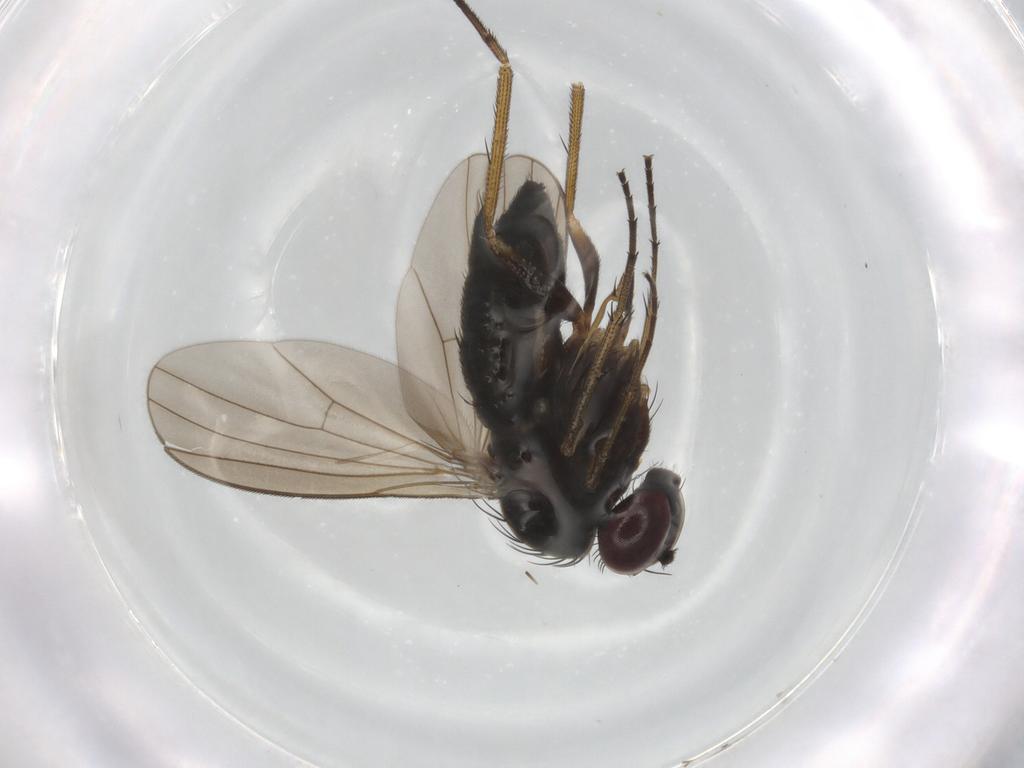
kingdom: Animalia
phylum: Arthropoda
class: Insecta
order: Diptera
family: Dolichopodidae
